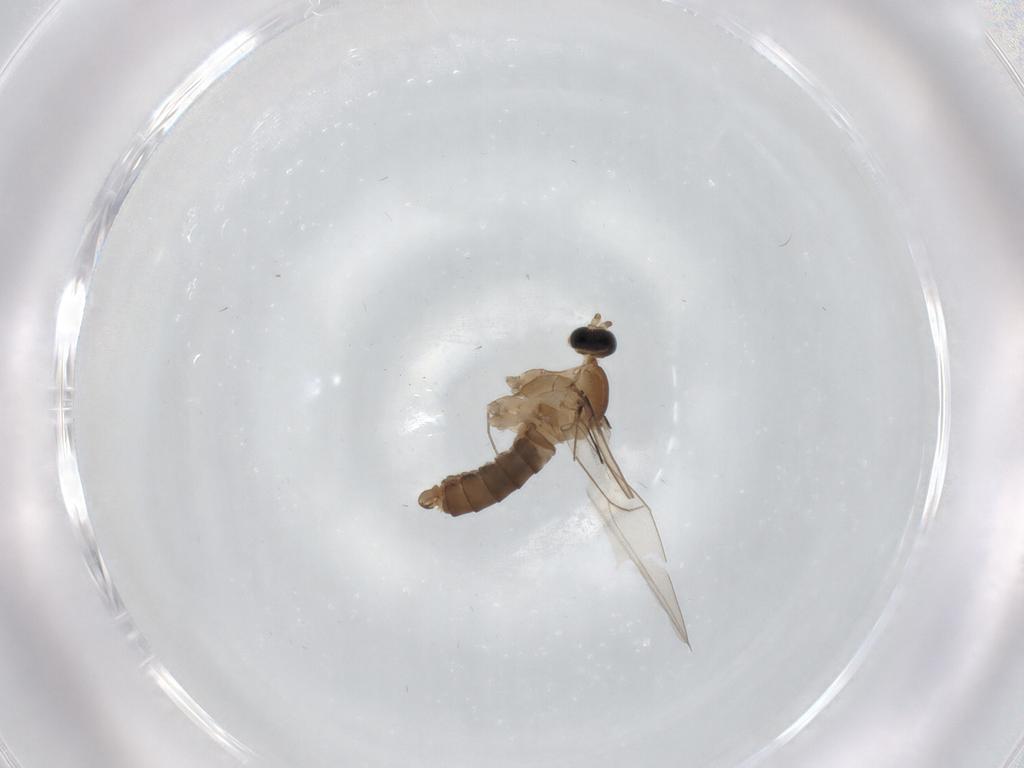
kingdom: Animalia
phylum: Arthropoda
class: Insecta
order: Diptera
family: Cecidomyiidae
